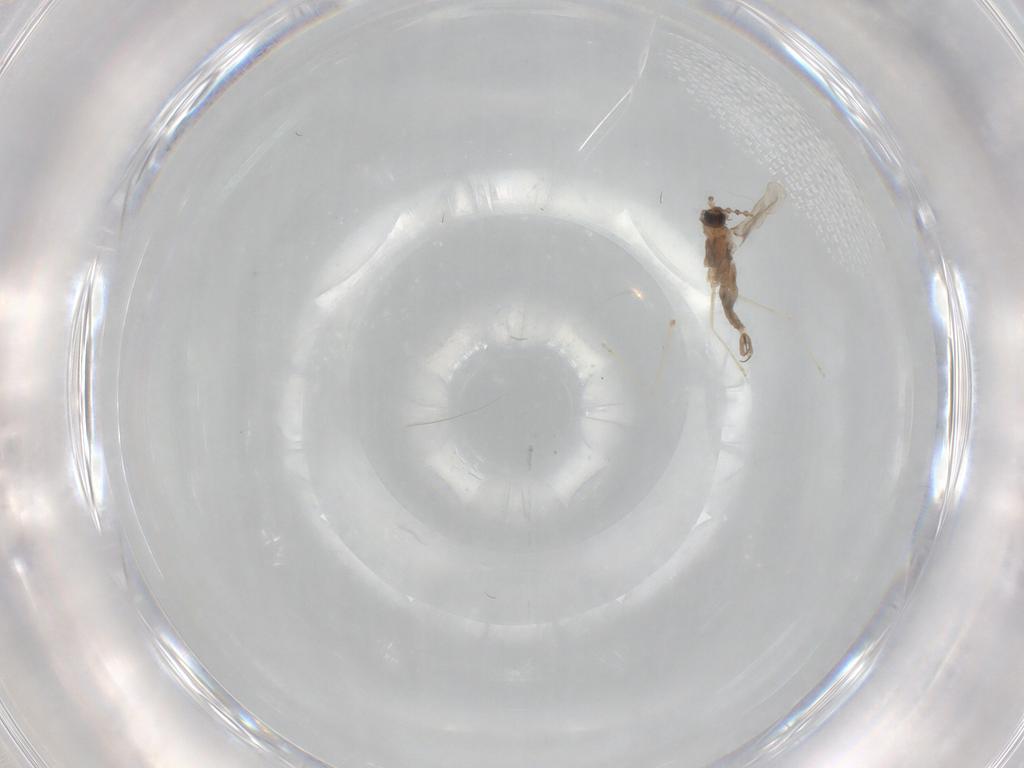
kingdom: Animalia
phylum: Arthropoda
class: Insecta
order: Diptera
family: Cecidomyiidae
